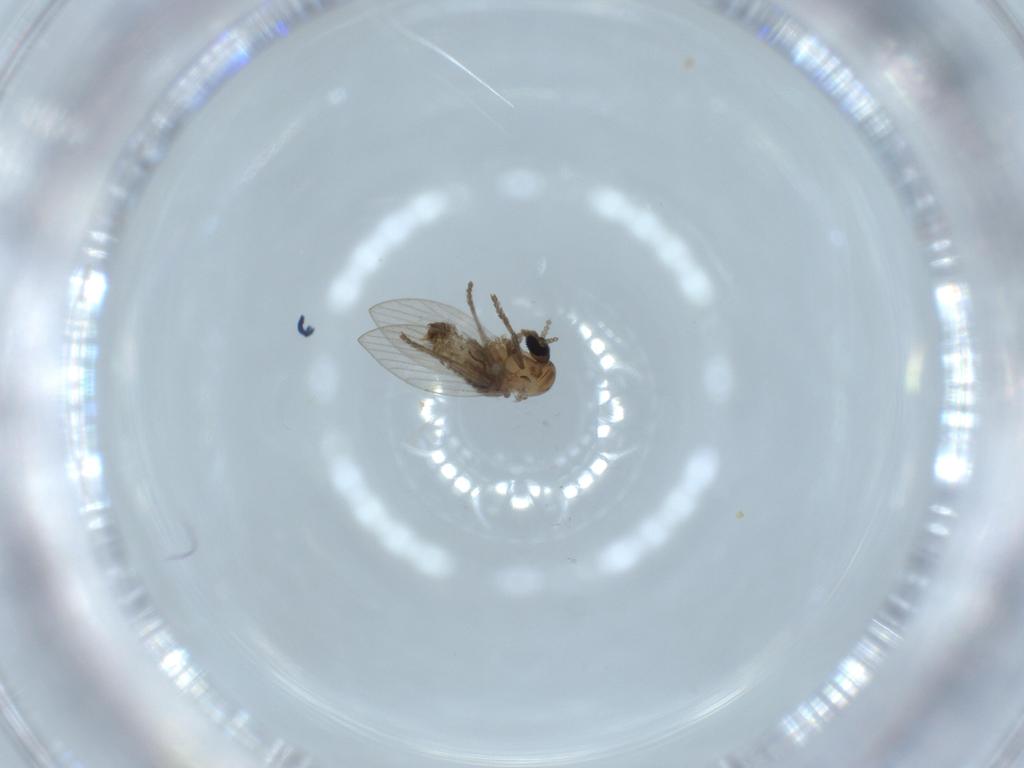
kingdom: Animalia
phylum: Arthropoda
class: Insecta
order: Diptera
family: Psychodidae
